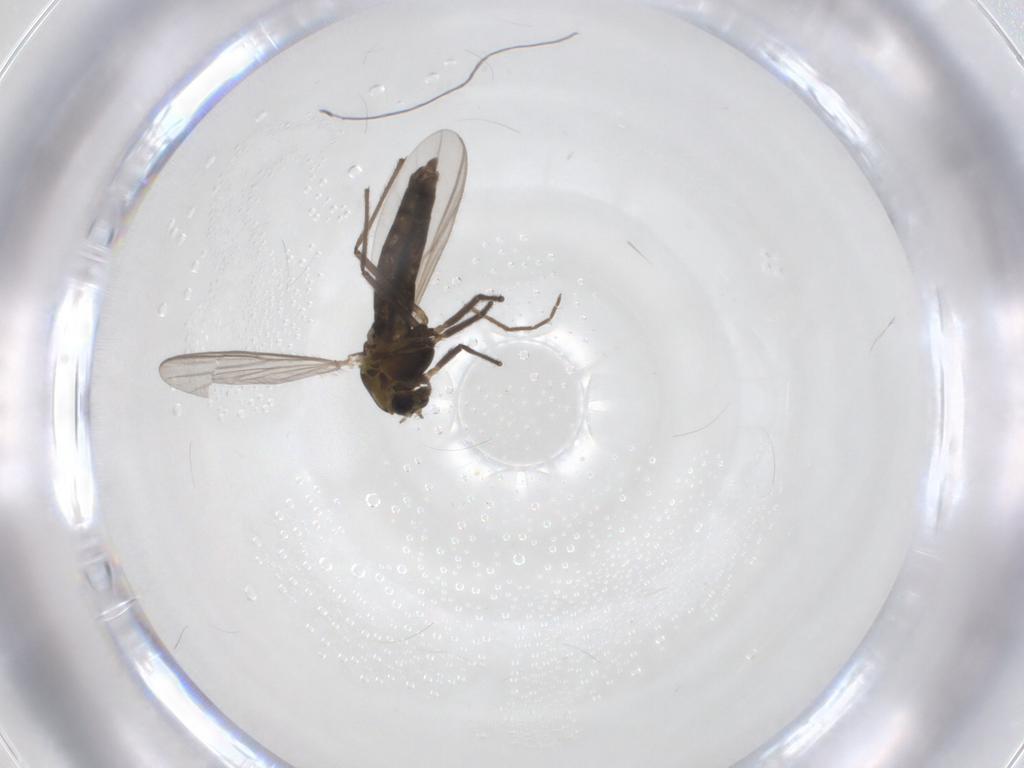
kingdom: Animalia
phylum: Arthropoda
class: Insecta
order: Diptera
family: Chironomidae
